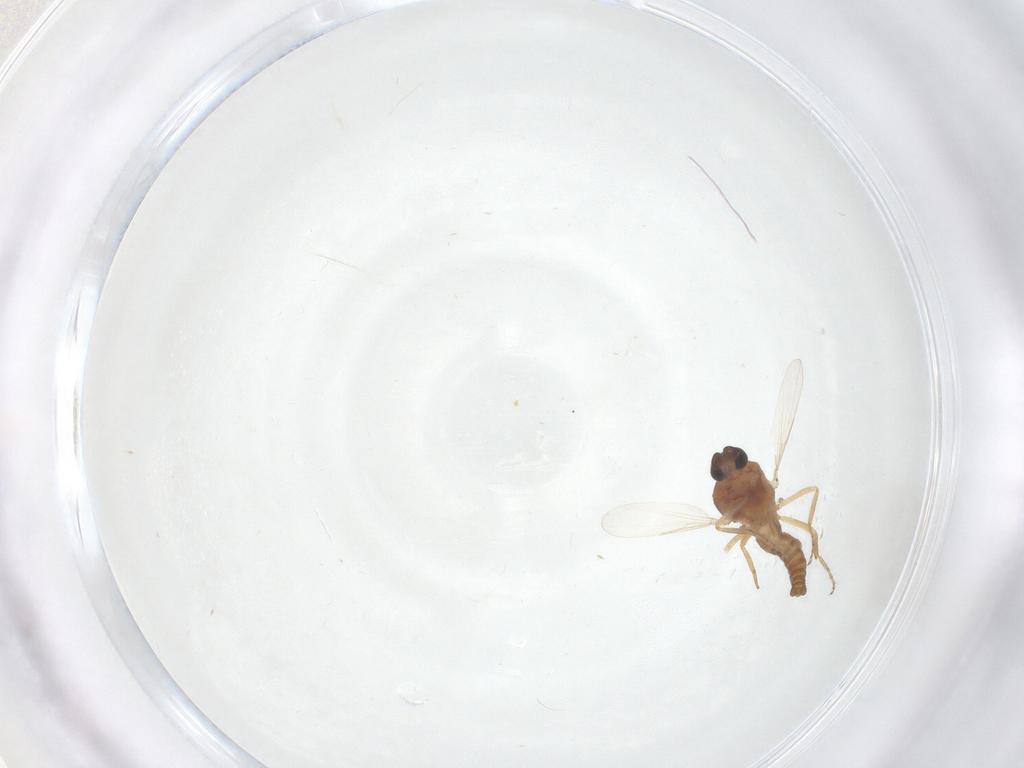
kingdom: Animalia
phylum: Arthropoda
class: Insecta
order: Diptera
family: Ceratopogonidae
